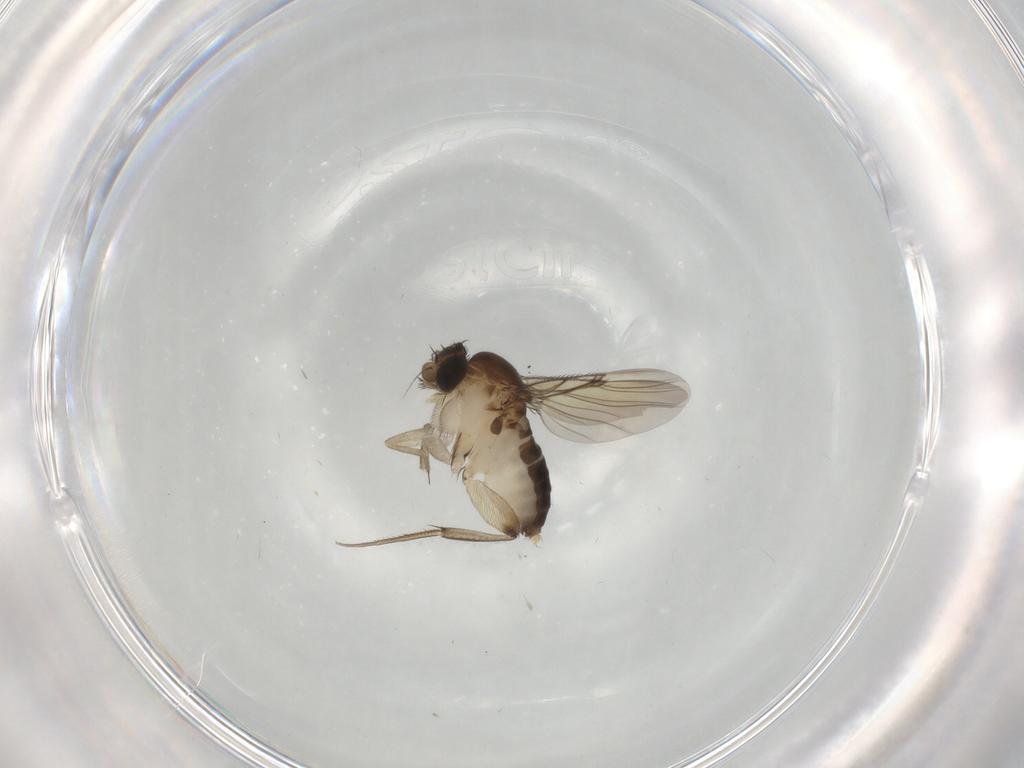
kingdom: Animalia
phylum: Arthropoda
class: Insecta
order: Diptera
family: Phoridae
